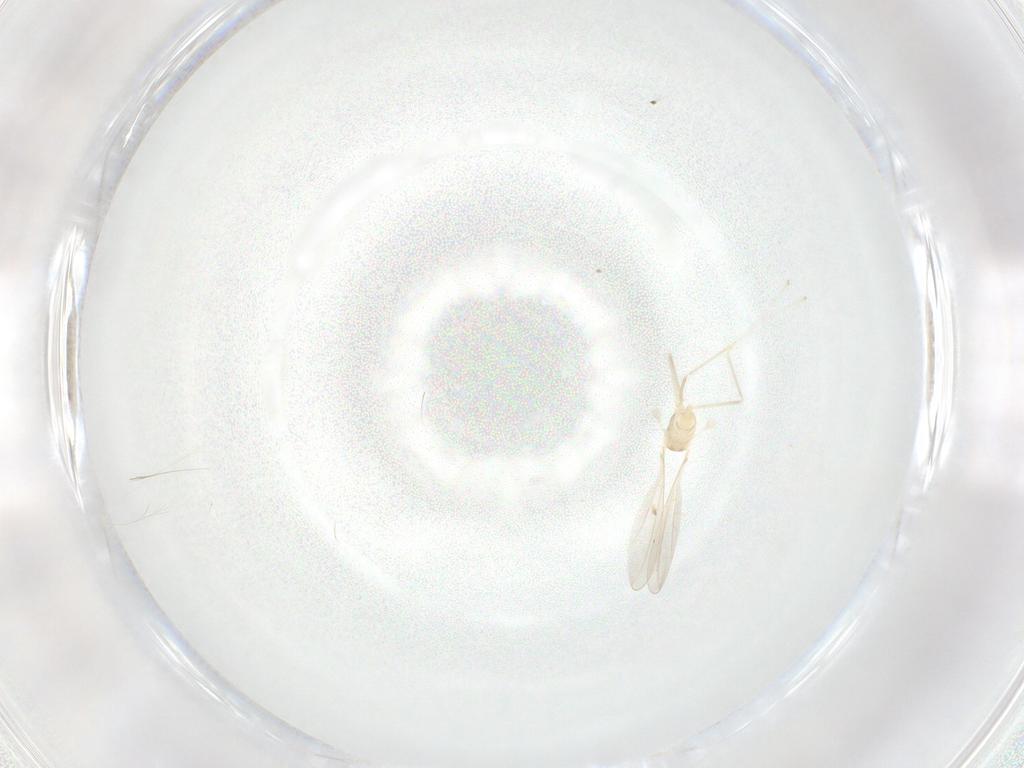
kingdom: Animalia
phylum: Arthropoda
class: Insecta
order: Diptera
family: Cecidomyiidae
